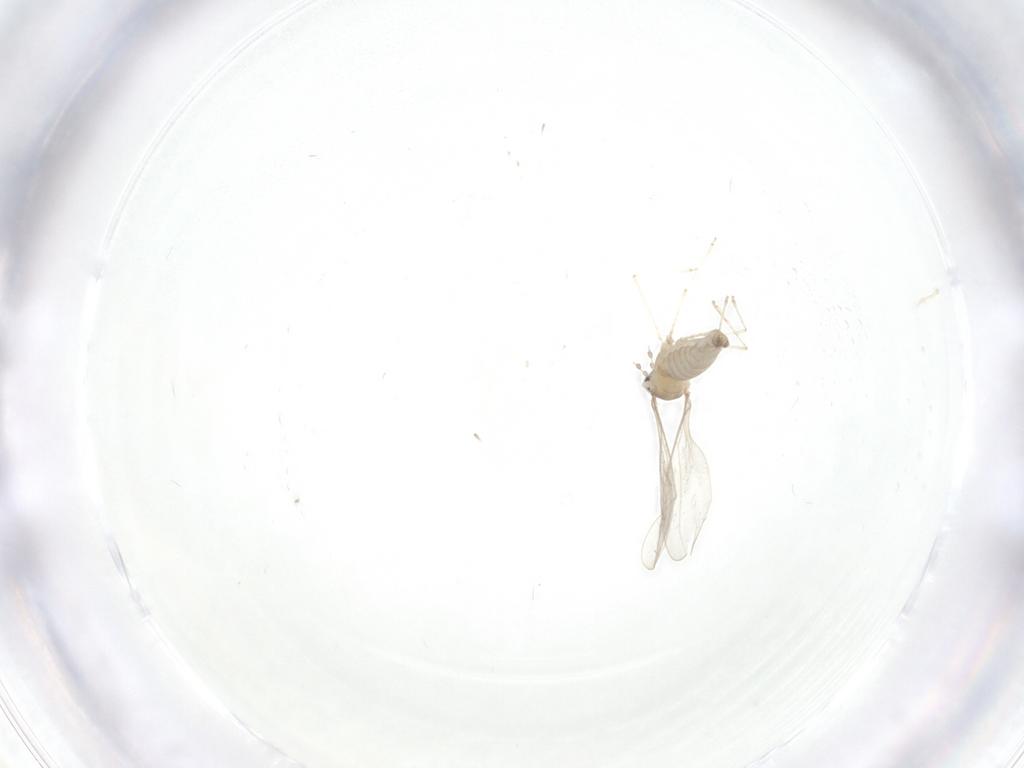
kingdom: Animalia
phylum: Arthropoda
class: Insecta
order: Diptera
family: Cecidomyiidae
